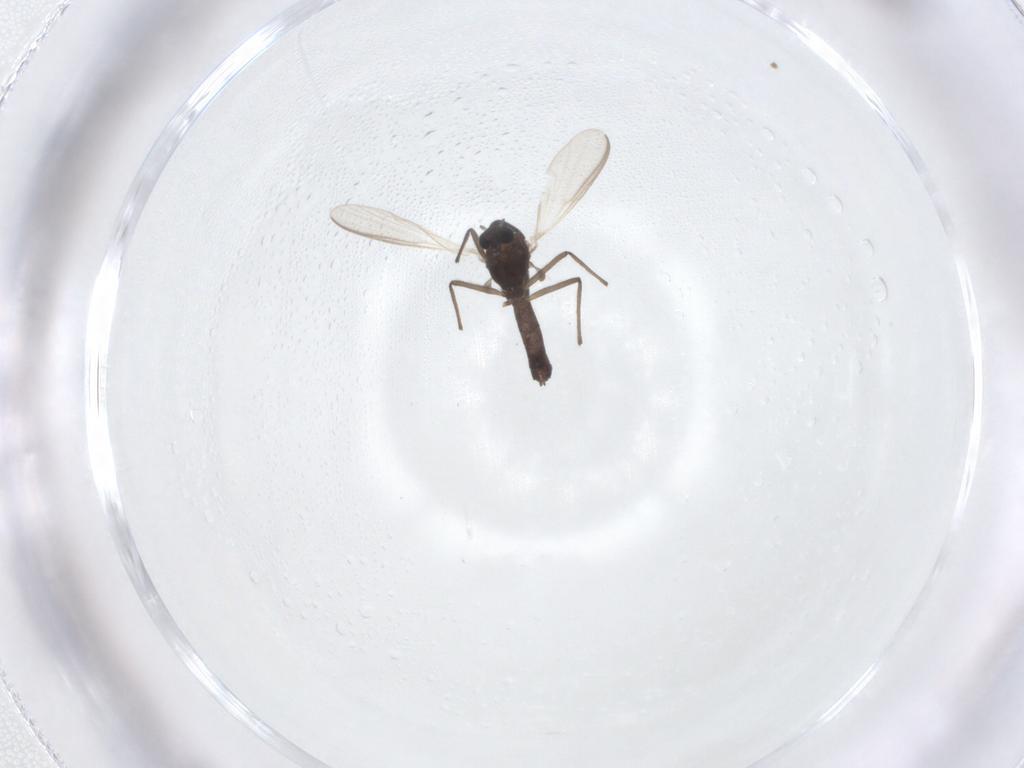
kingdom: Animalia
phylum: Arthropoda
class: Insecta
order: Diptera
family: Chironomidae
